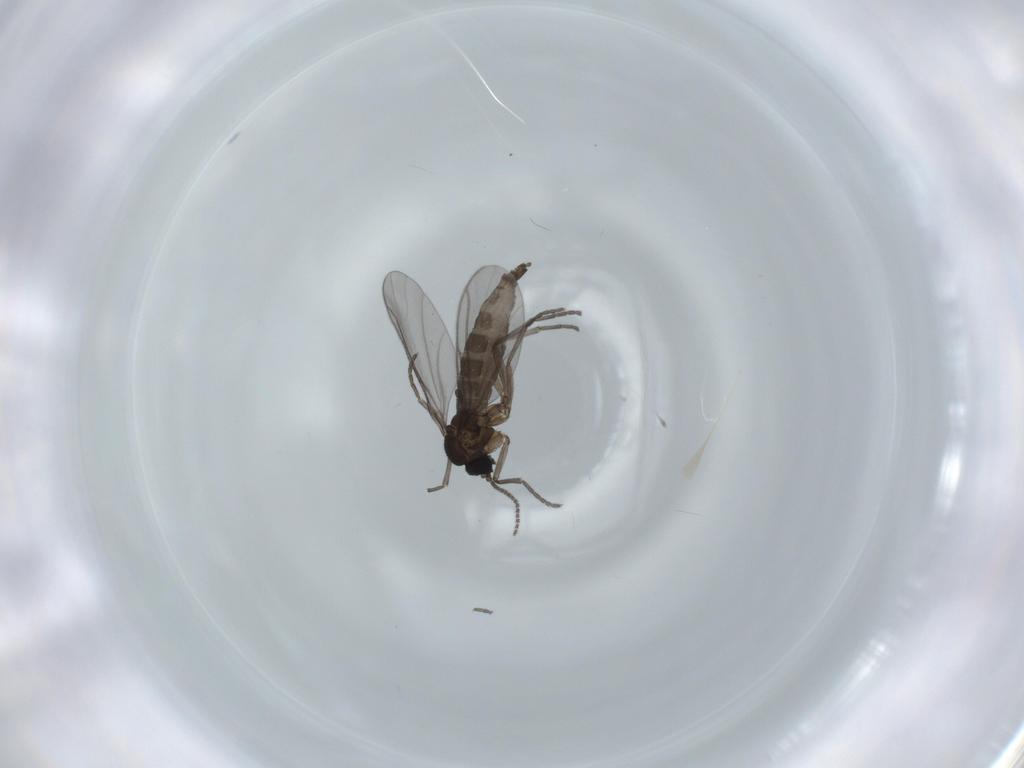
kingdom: Animalia
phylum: Arthropoda
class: Insecta
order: Diptera
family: Sciaridae
